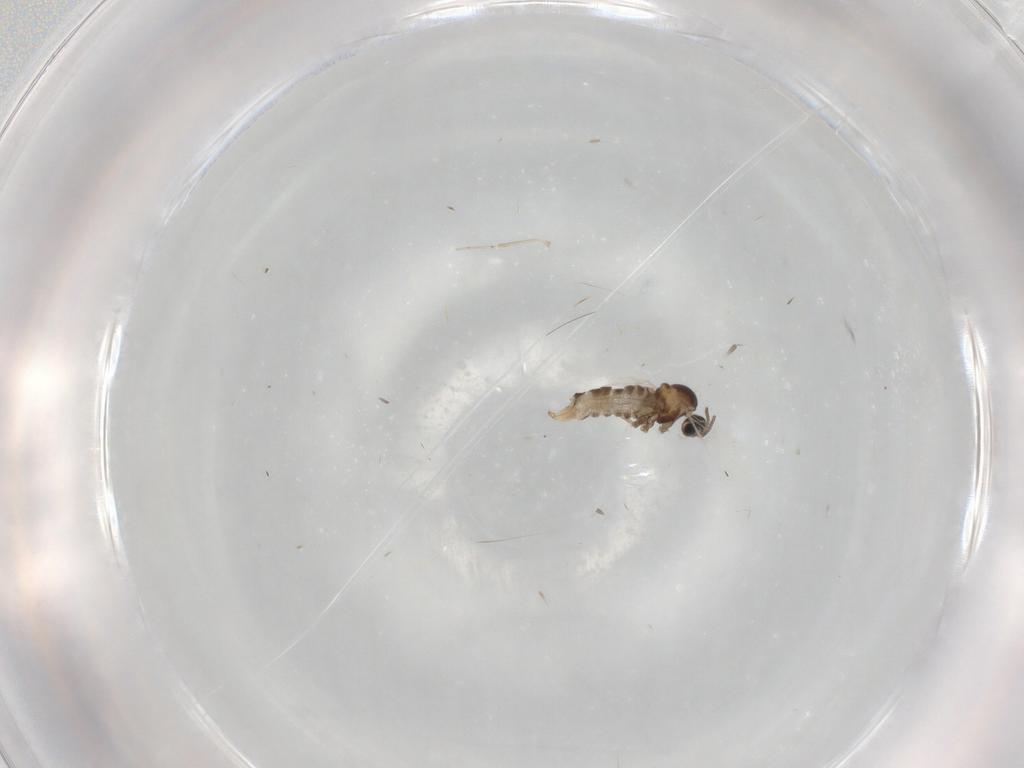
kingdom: Animalia
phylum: Arthropoda
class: Insecta
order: Diptera
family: Cecidomyiidae
